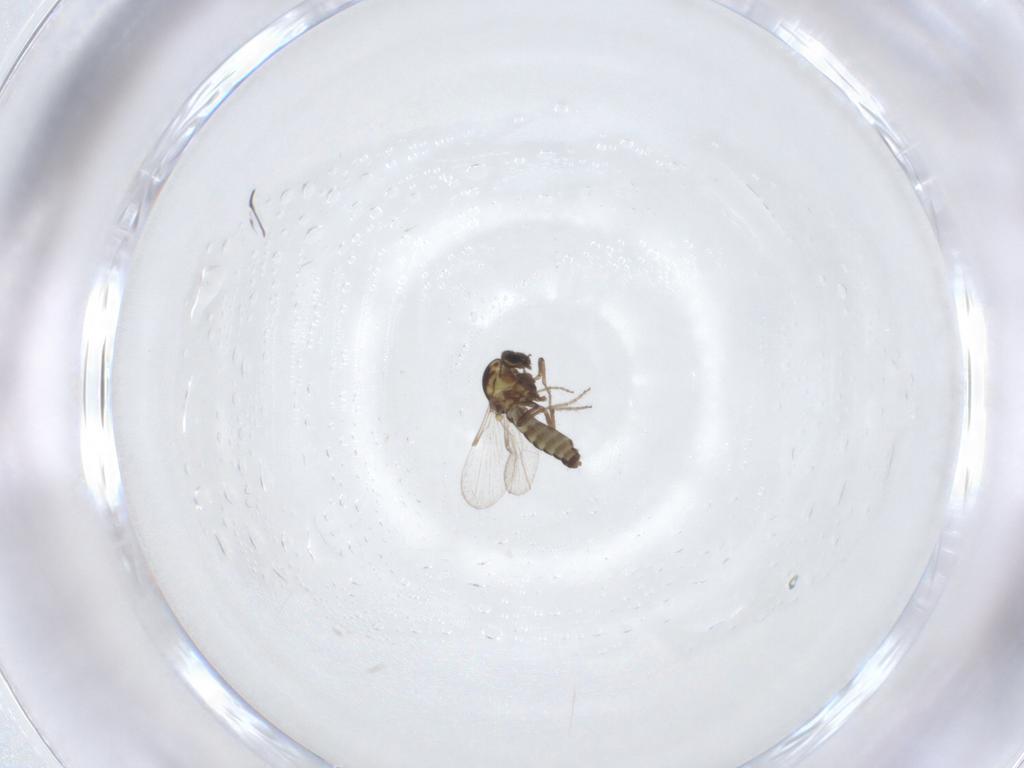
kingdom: Animalia
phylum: Arthropoda
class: Insecta
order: Diptera
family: Ceratopogonidae
